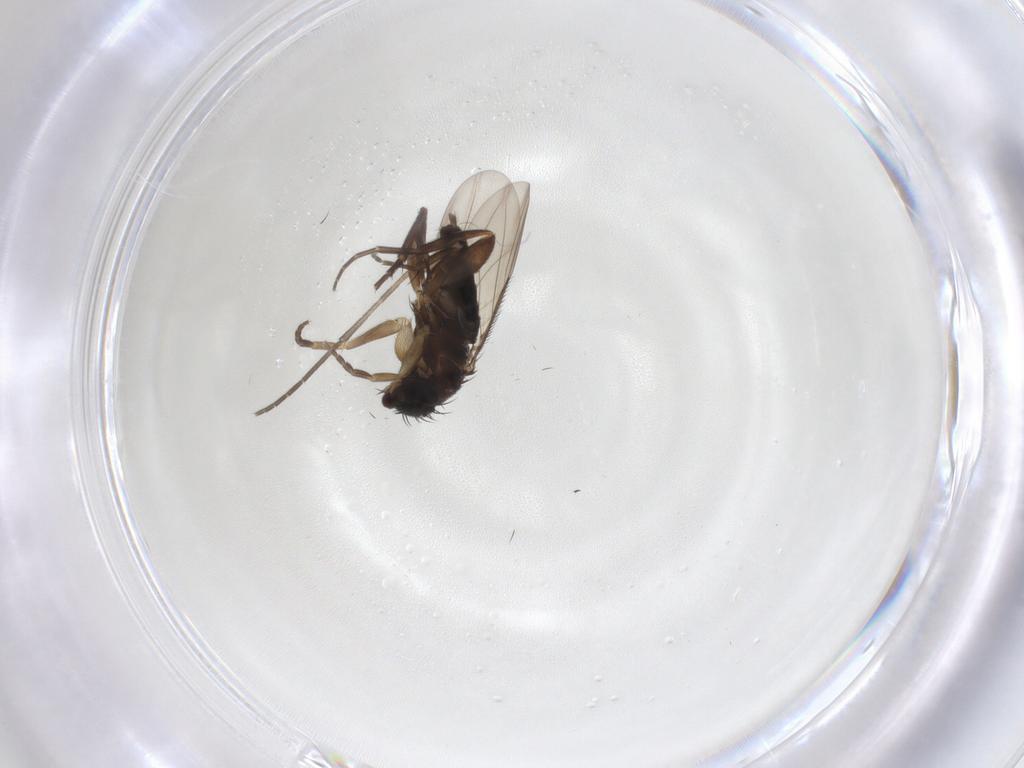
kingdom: Animalia
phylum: Arthropoda
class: Insecta
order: Diptera
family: Phoridae
